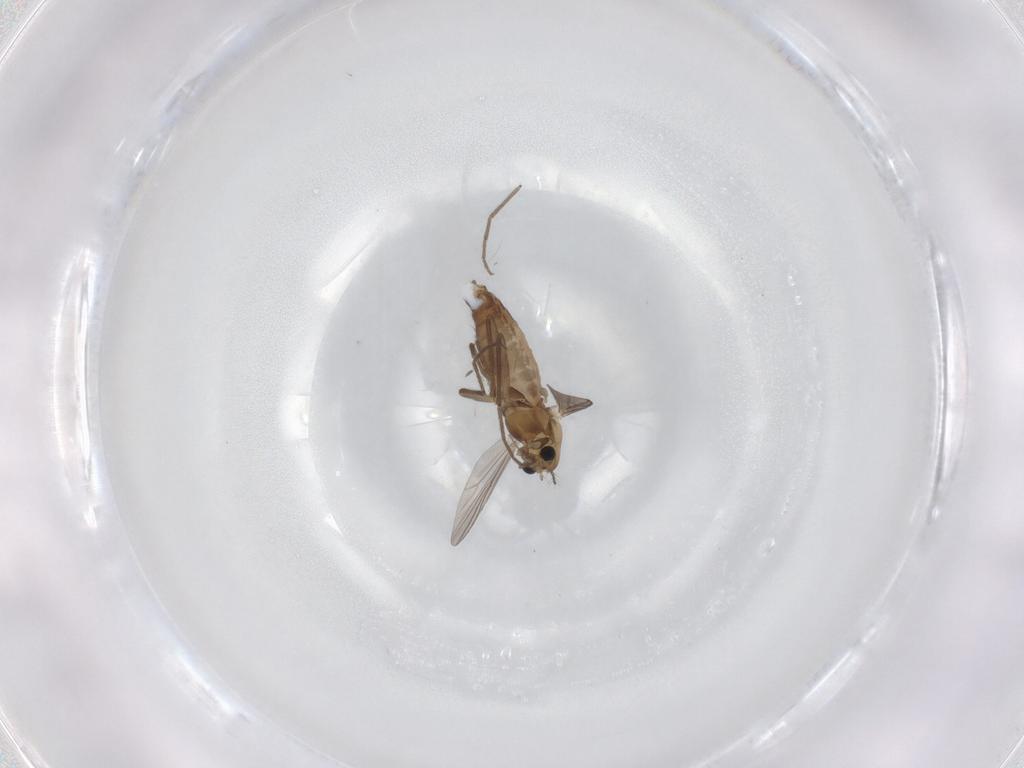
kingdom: Animalia
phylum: Arthropoda
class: Insecta
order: Diptera
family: Chironomidae
